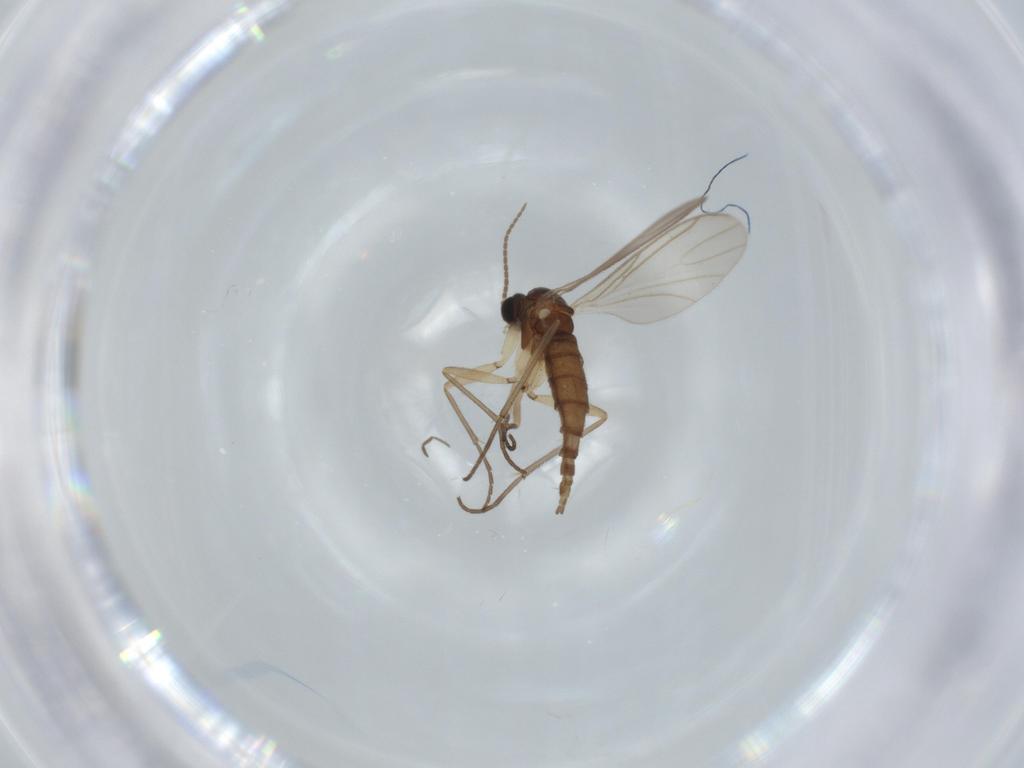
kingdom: Animalia
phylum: Arthropoda
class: Insecta
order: Diptera
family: Sciaridae
